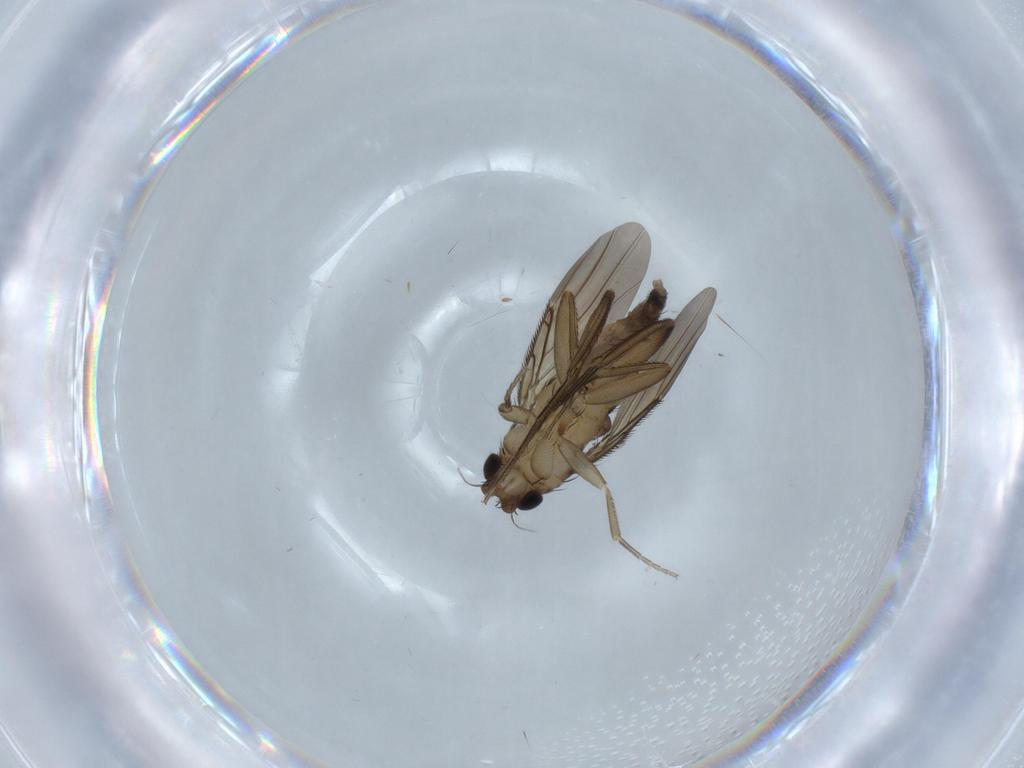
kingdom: Animalia
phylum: Arthropoda
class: Insecta
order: Diptera
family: Phoridae
